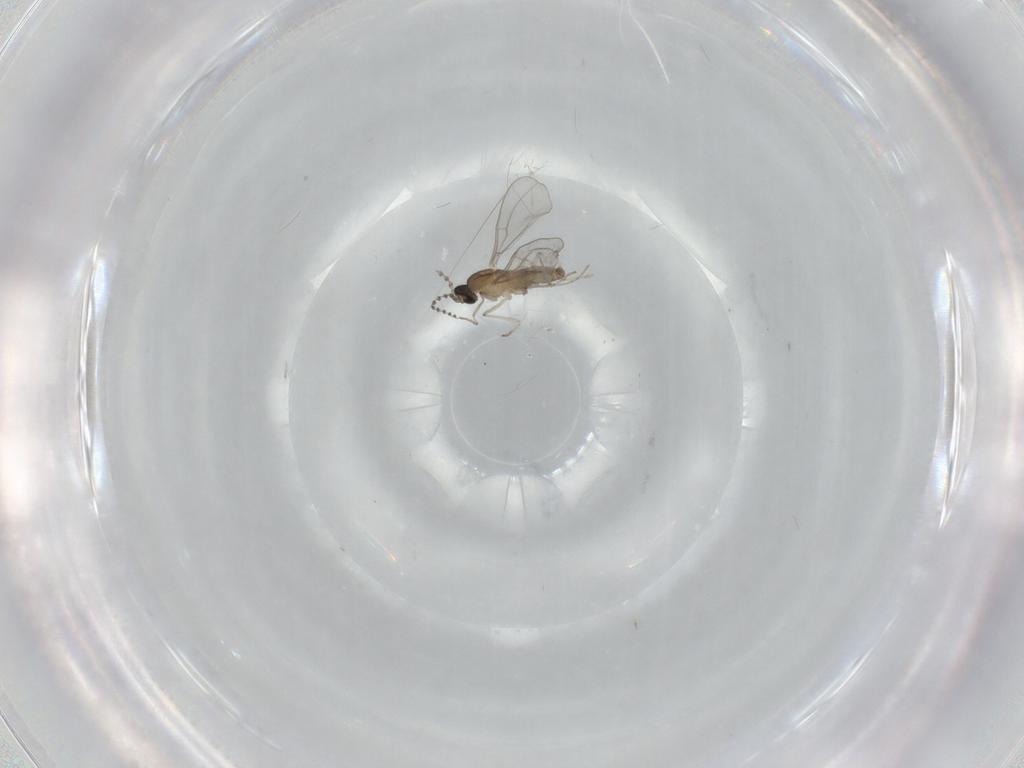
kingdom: Animalia
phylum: Arthropoda
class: Insecta
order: Diptera
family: Cecidomyiidae
